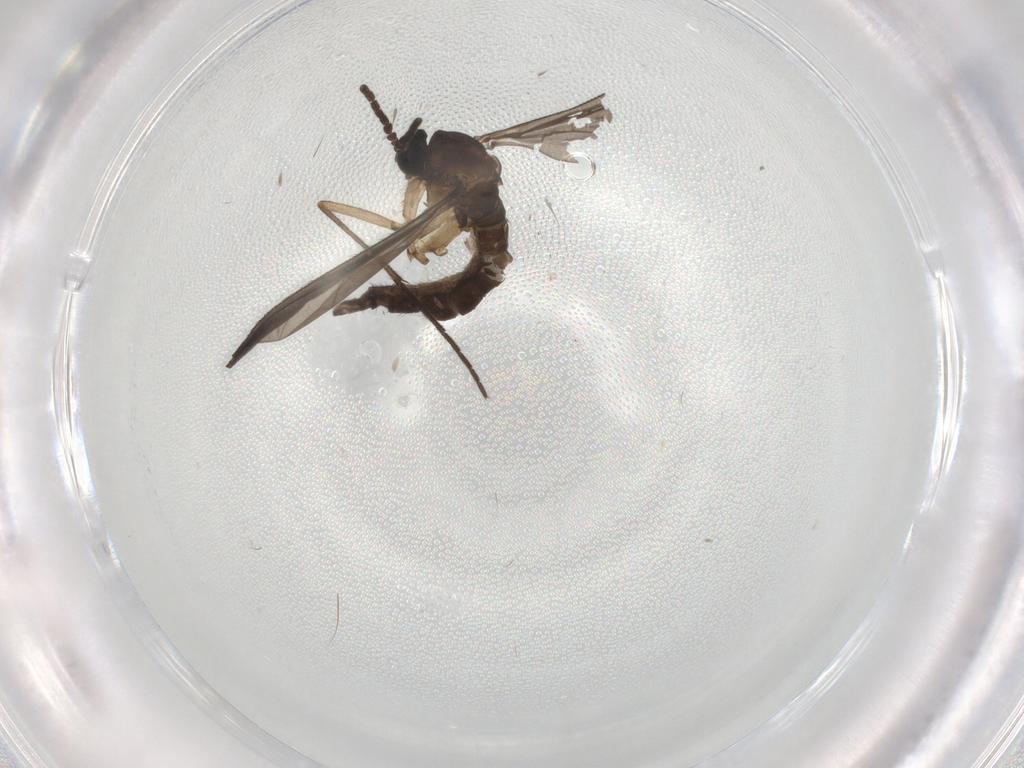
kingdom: Animalia
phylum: Arthropoda
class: Insecta
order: Diptera
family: Sciaridae
